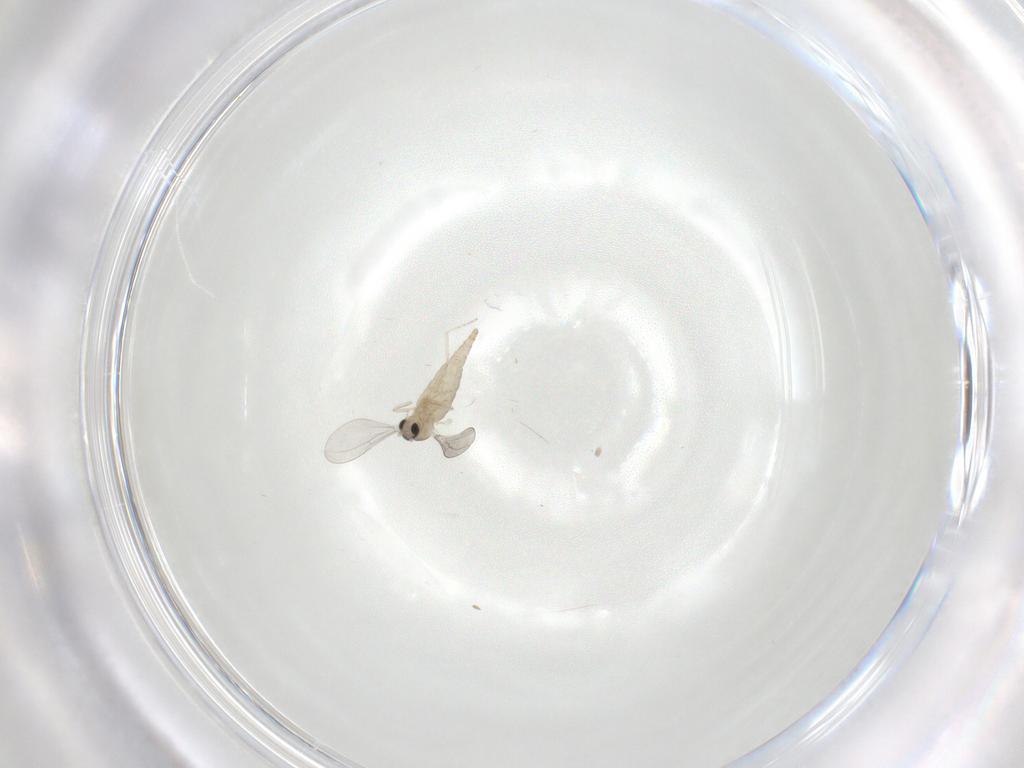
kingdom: Animalia
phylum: Arthropoda
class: Insecta
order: Diptera
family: Cecidomyiidae
